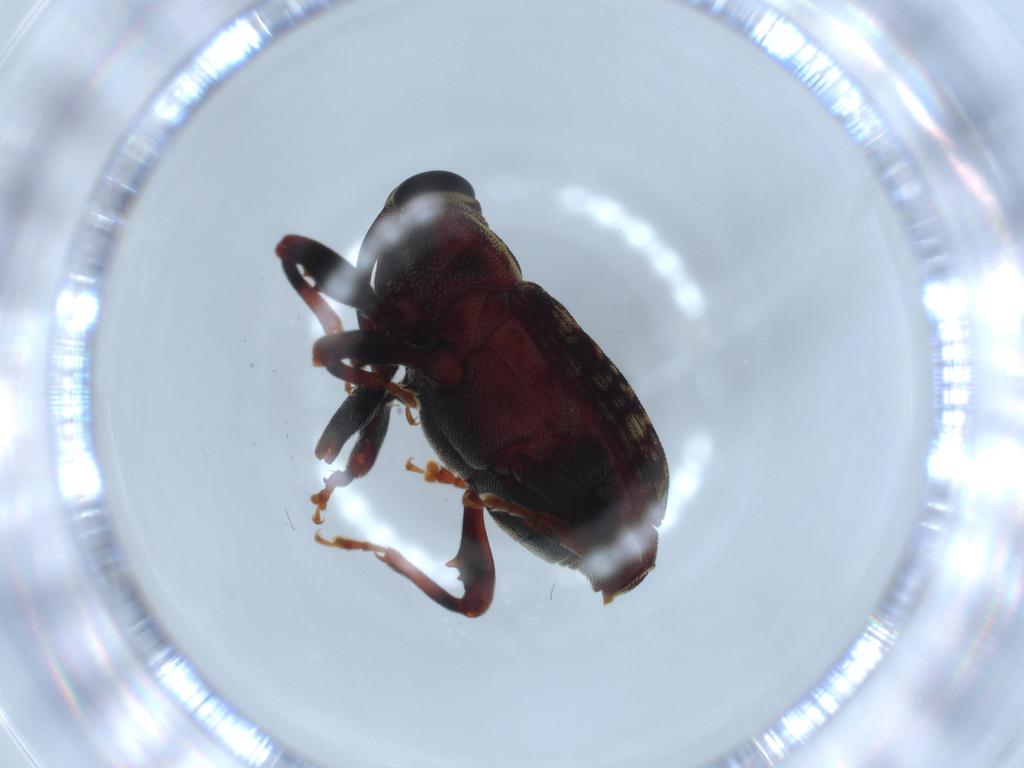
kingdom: Animalia
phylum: Arthropoda
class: Insecta
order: Coleoptera
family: Curculionidae
